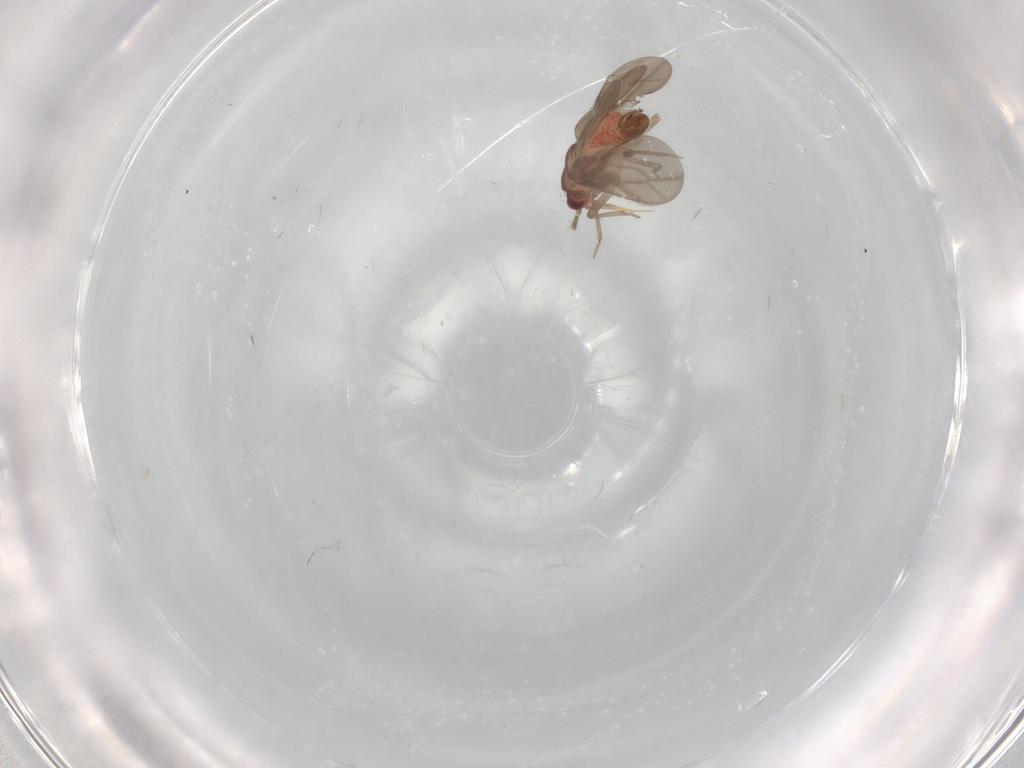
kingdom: Animalia
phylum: Arthropoda
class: Insecta
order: Hemiptera
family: Ceratocombidae
